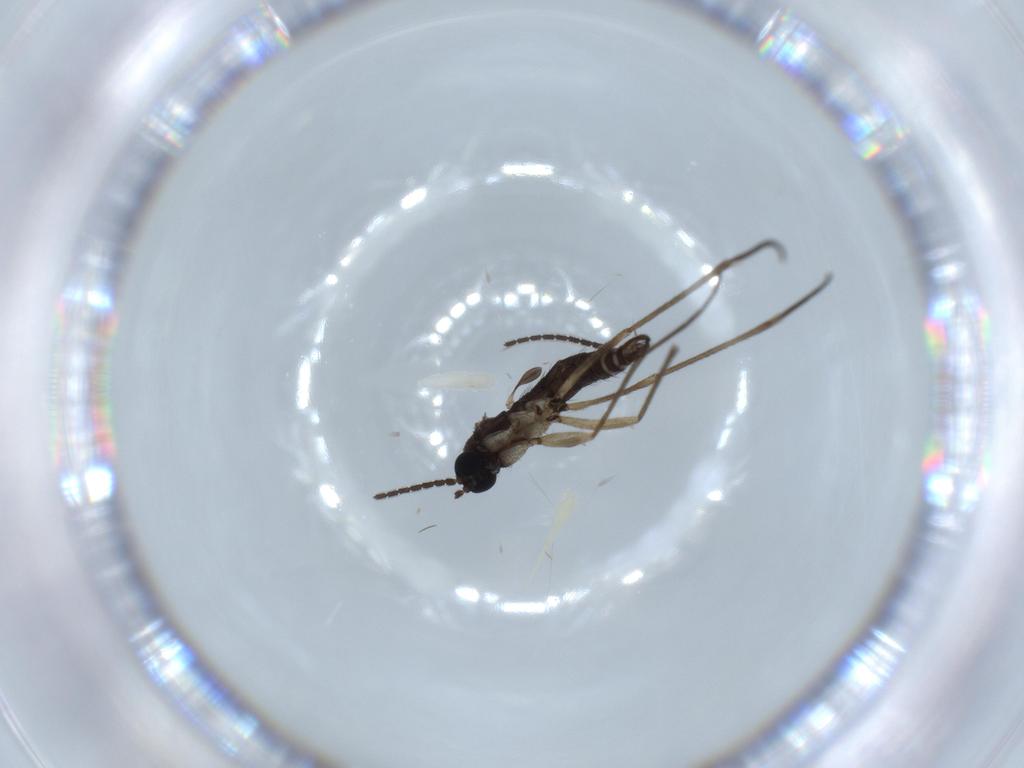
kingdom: Animalia
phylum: Arthropoda
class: Insecta
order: Diptera
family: Hybotidae
